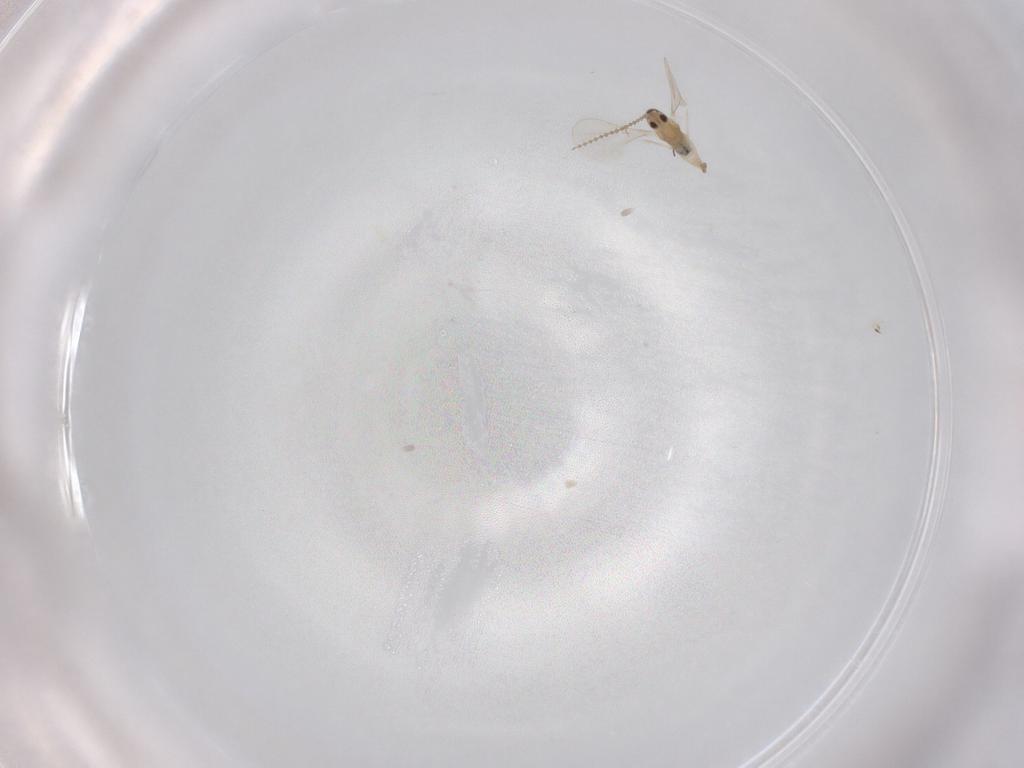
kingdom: Animalia
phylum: Arthropoda
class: Insecta
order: Diptera
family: Cecidomyiidae
